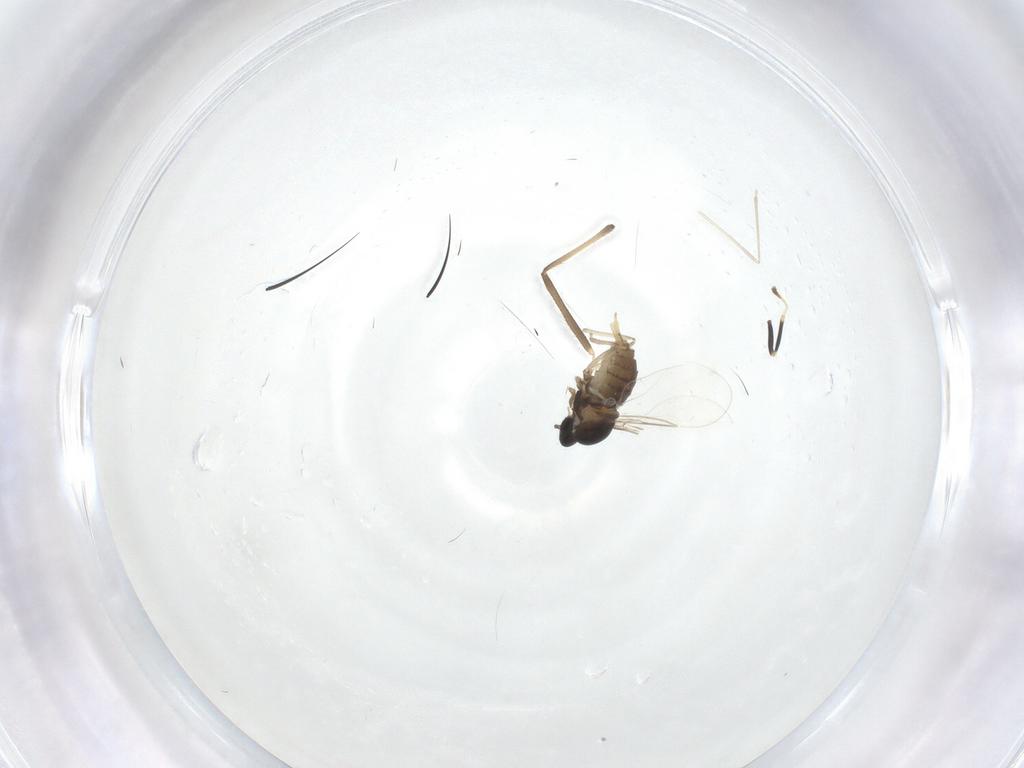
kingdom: Animalia
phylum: Arthropoda
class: Insecta
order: Diptera
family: Cecidomyiidae
